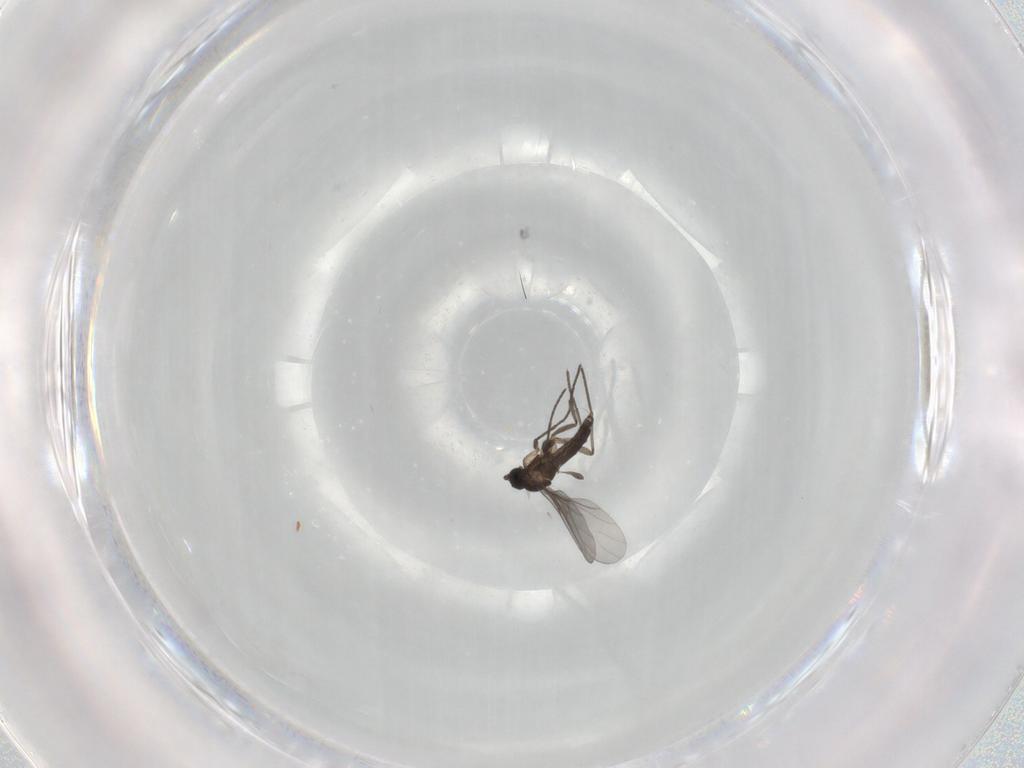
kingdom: Animalia
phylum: Arthropoda
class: Insecta
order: Diptera
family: Sciaridae
